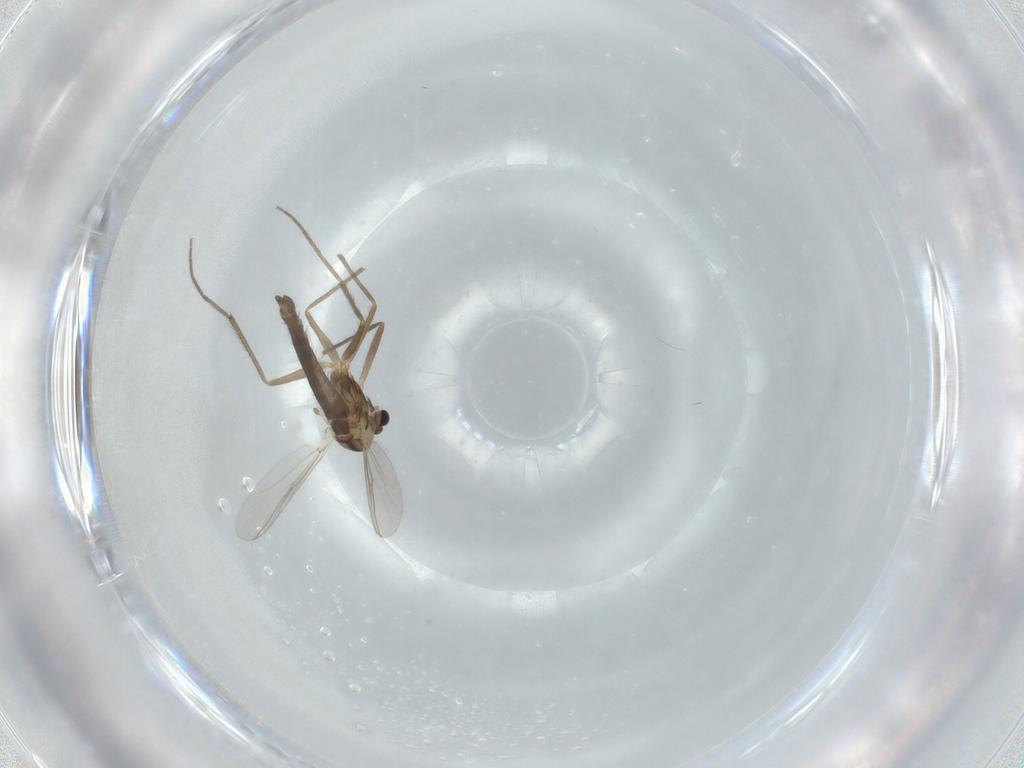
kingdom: Animalia
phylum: Arthropoda
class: Insecta
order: Diptera
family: Chironomidae
